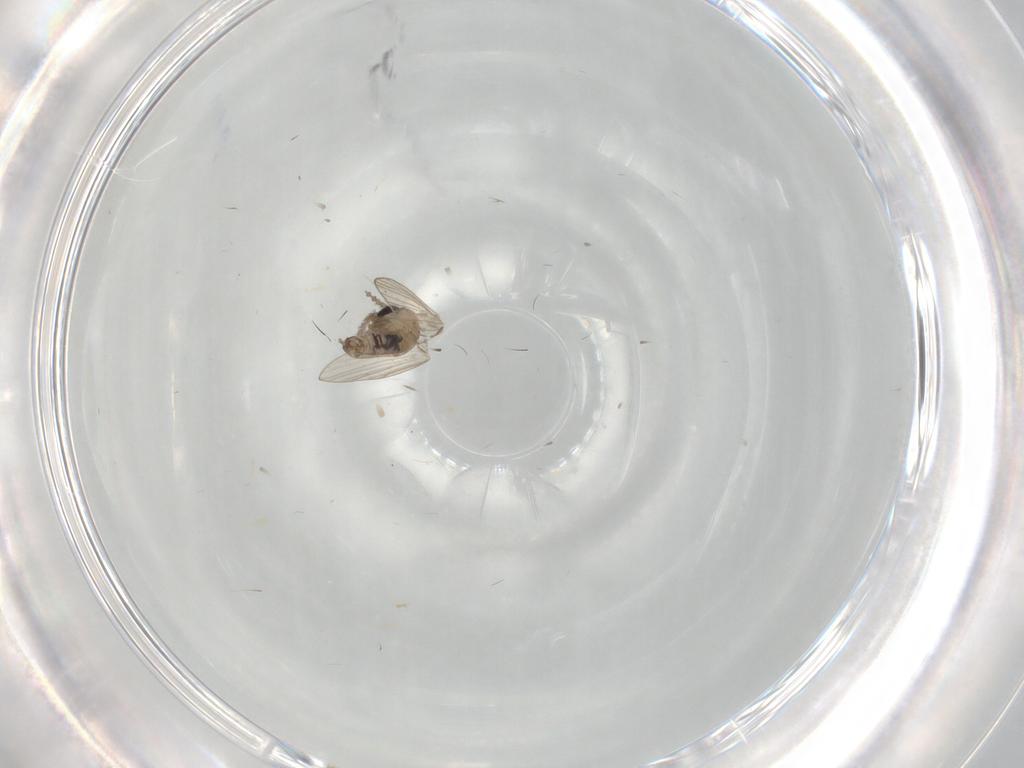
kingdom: Animalia
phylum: Arthropoda
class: Insecta
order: Diptera
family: Psychodidae
